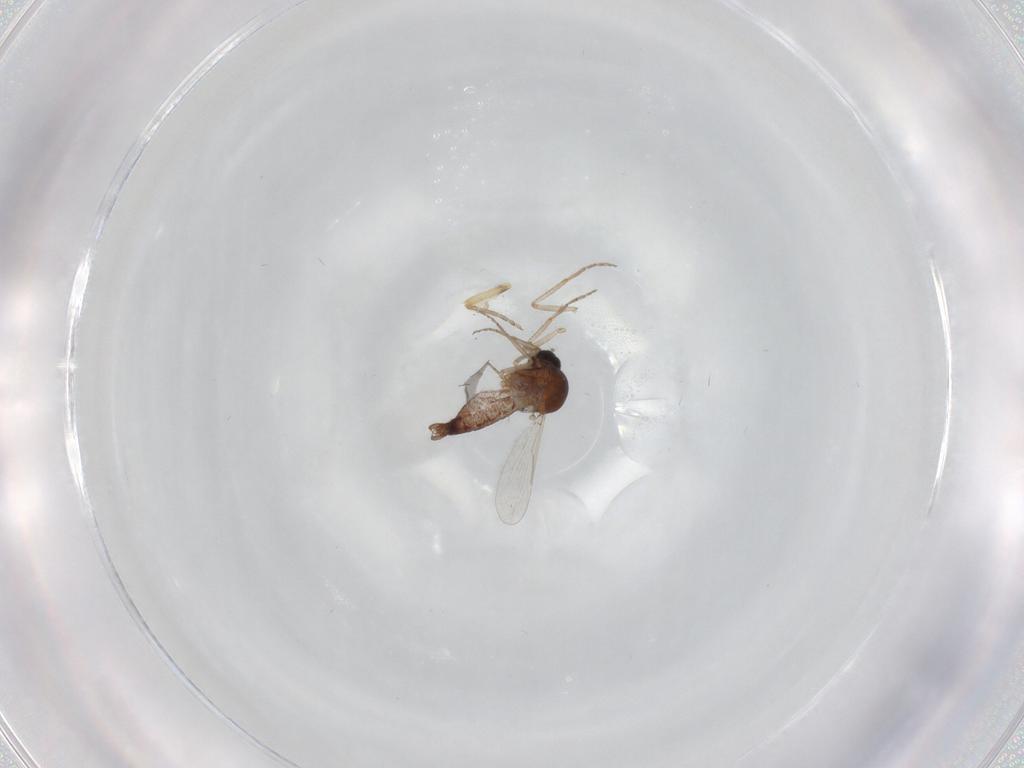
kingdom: Animalia
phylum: Arthropoda
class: Insecta
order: Diptera
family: Ceratopogonidae
